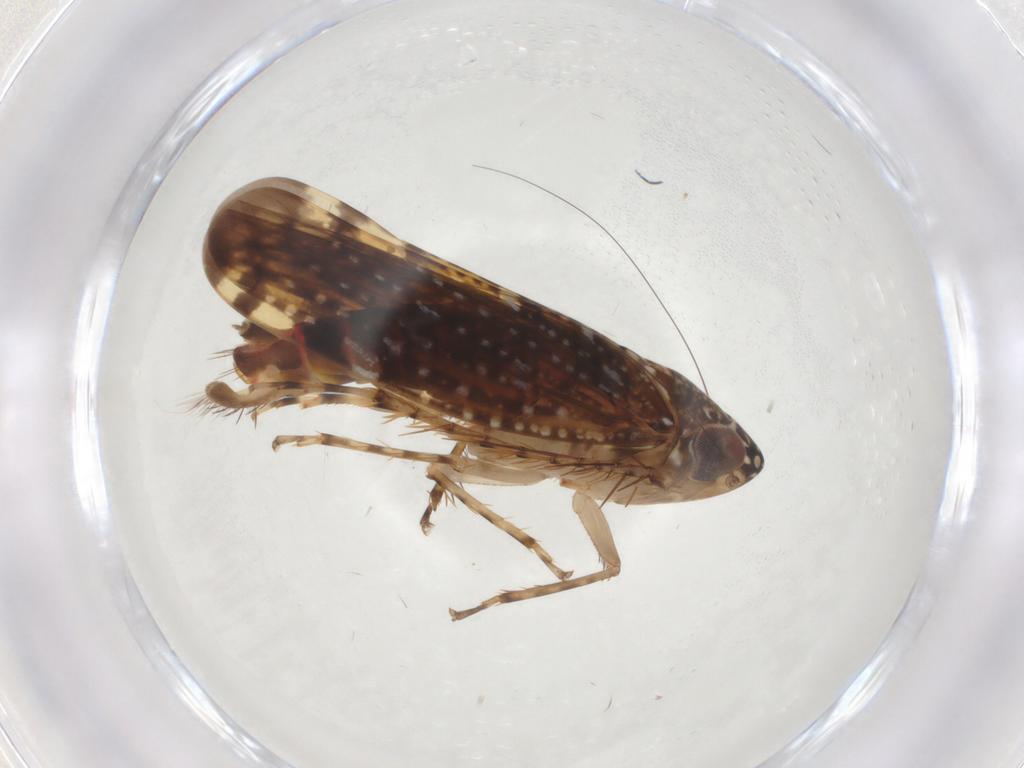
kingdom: Animalia
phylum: Arthropoda
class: Insecta
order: Hemiptera
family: Cicadellidae
